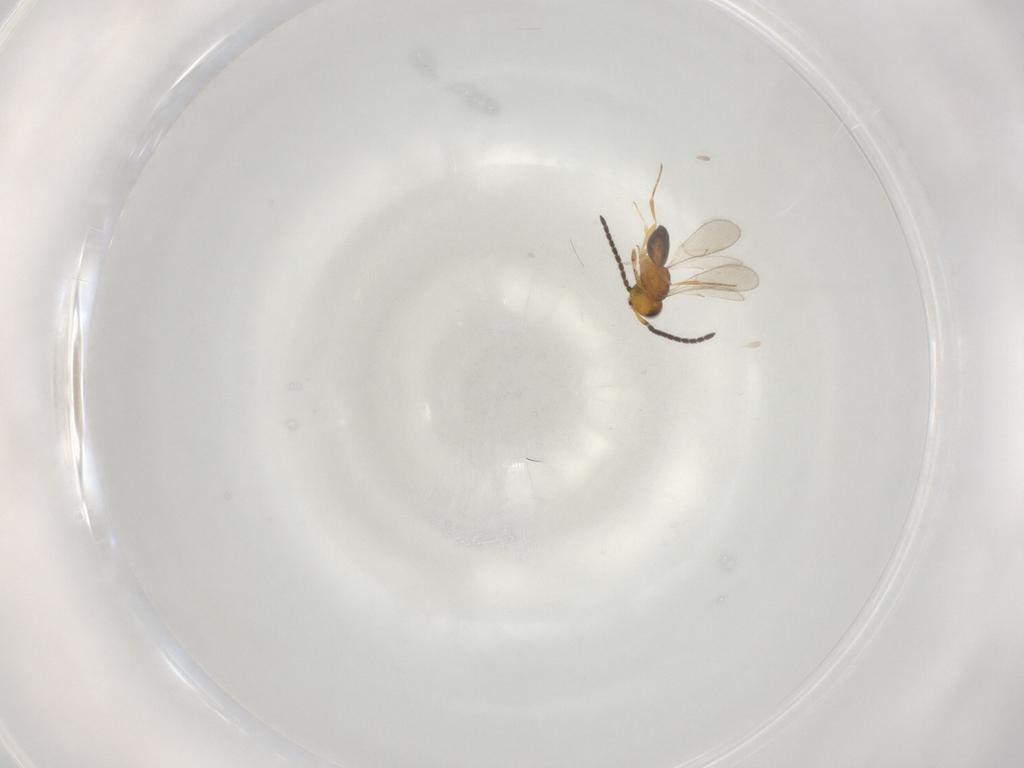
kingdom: Animalia
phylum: Arthropoda
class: Insecta
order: Hymenoptera
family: Scelionidae
